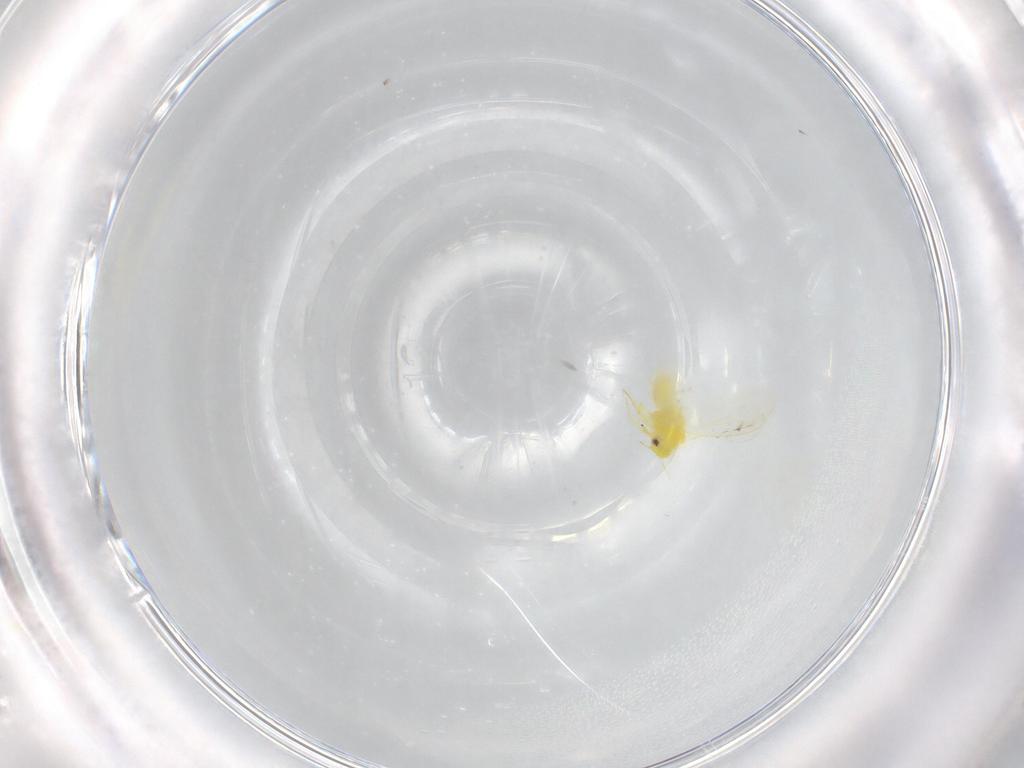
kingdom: Animalia
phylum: Arthropoda
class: Insecta
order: Hemiptera
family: Aleyrodidae
